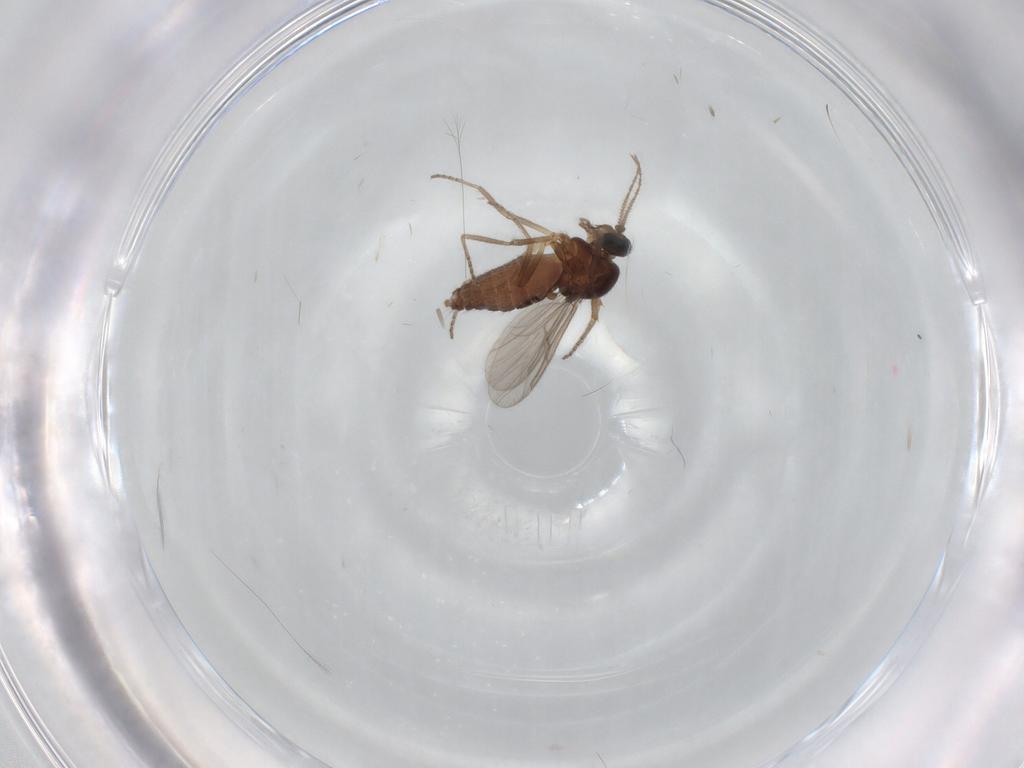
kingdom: Animalia
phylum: Arthropoda
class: Insecta
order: Diptera
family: Ceratopogonidae
